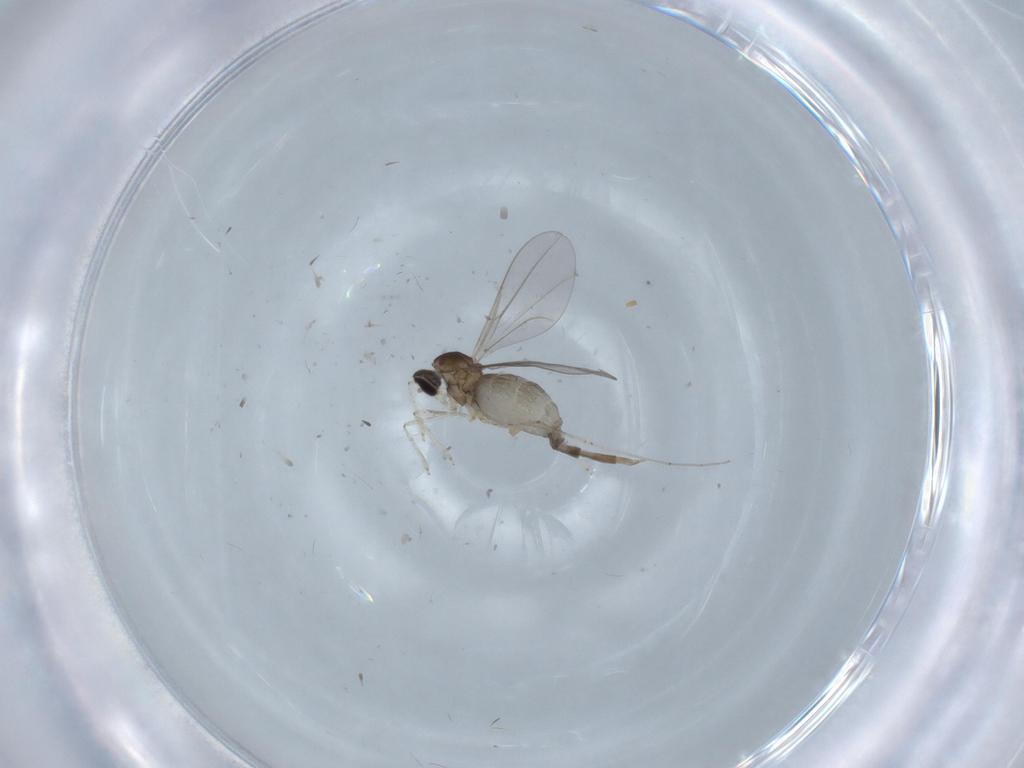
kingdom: Animalia
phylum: Arthropoda
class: Insecta
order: Diptera
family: Cecidomyiidae
